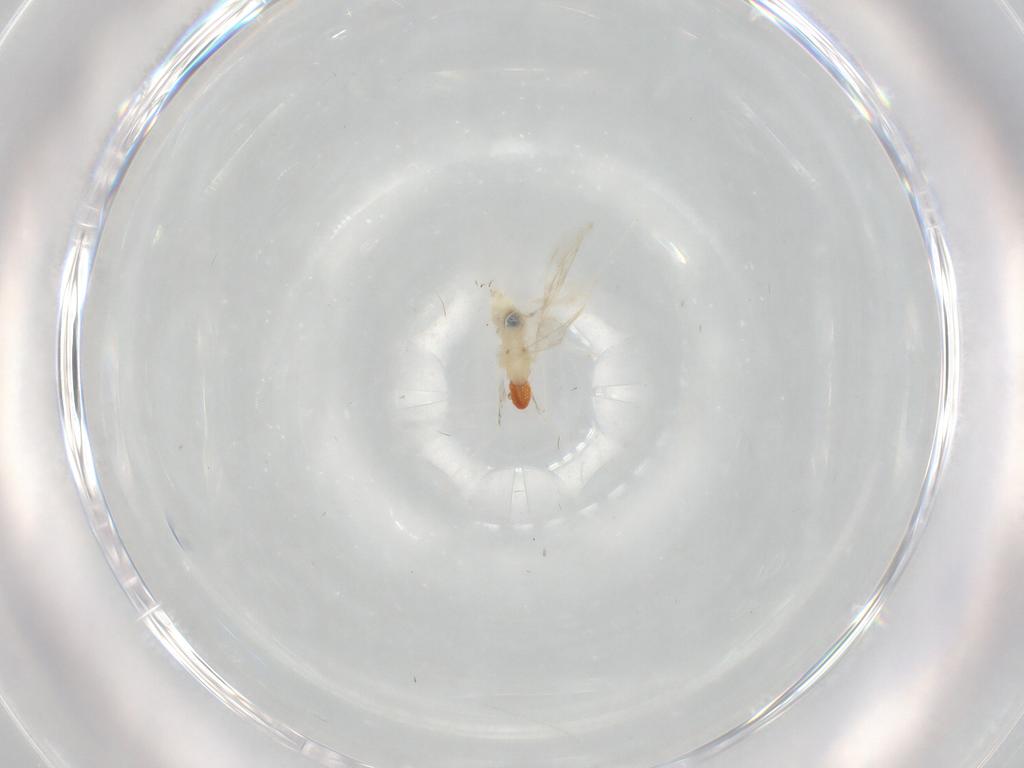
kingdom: Animalia
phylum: Arthropoda
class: Insecta
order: Diptera
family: Cecidomyiidae
